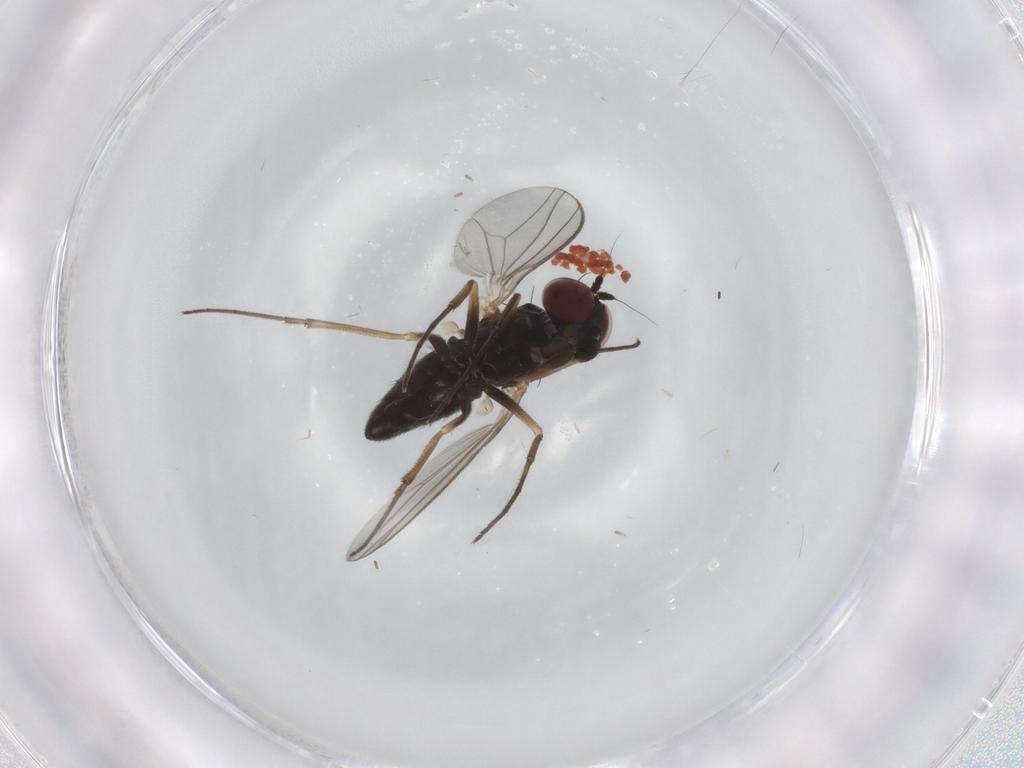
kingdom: Animalia
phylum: Arthropoda
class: Insecta
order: Diptera
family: Dolichopodidae
